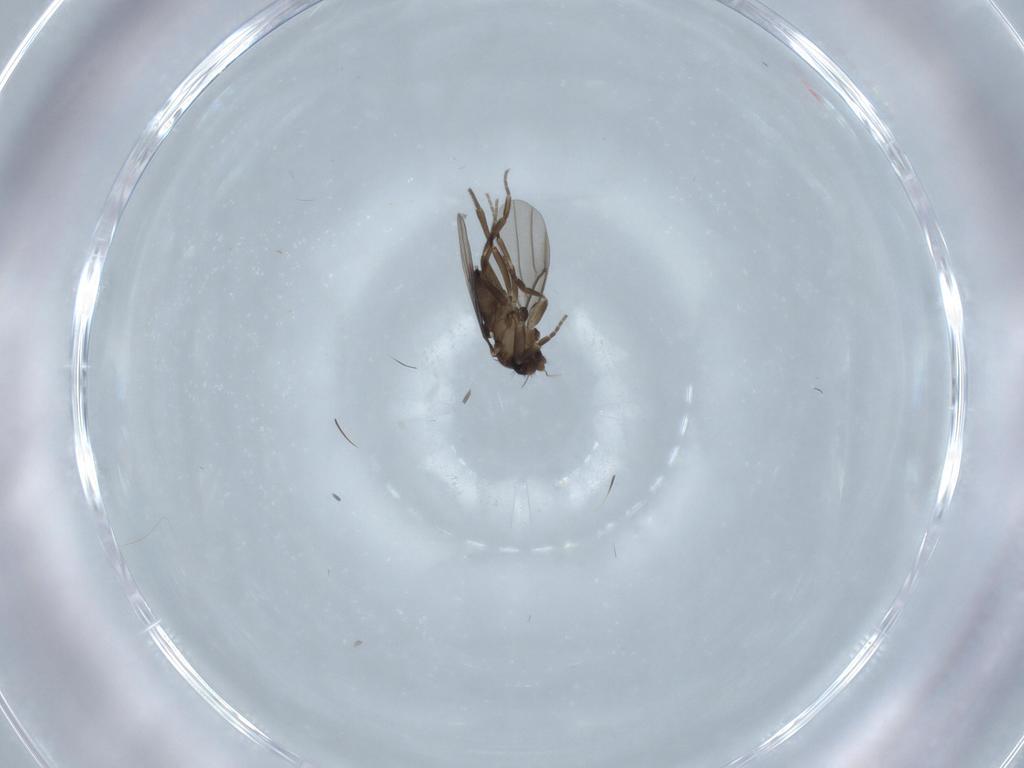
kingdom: Animalia
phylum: Arthropoda
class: Insecta
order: Diptera
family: Phoridae
